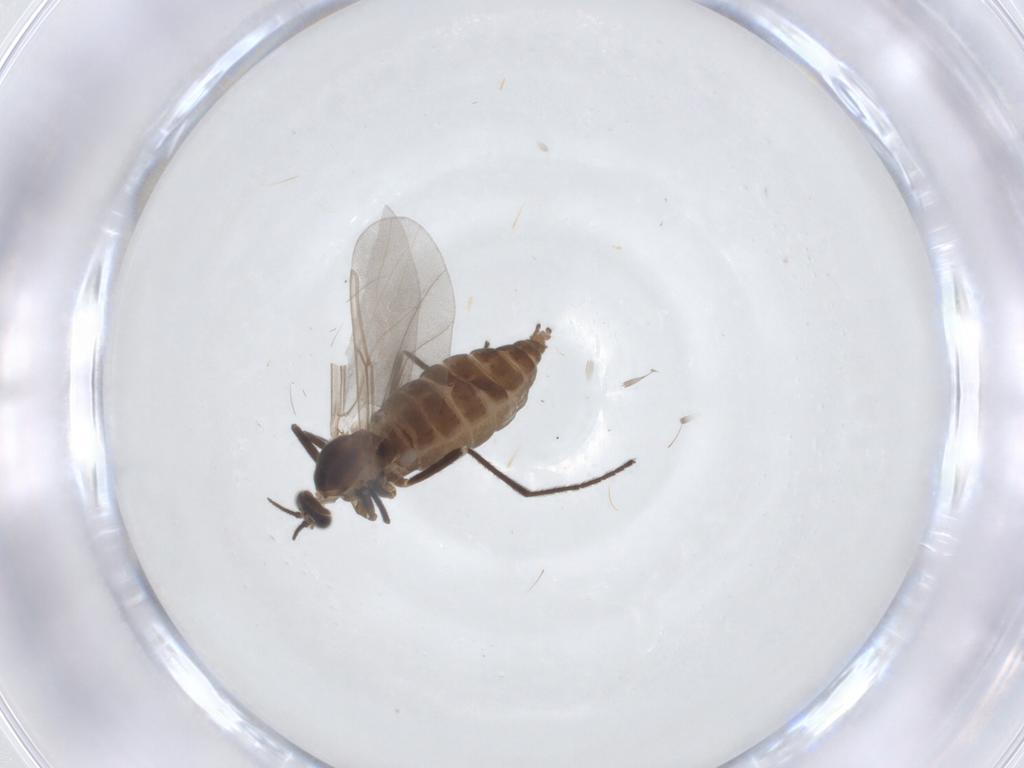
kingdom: Animalia
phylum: Arthropoda
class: Insecta
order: Diptera
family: Cecidomyiidae
